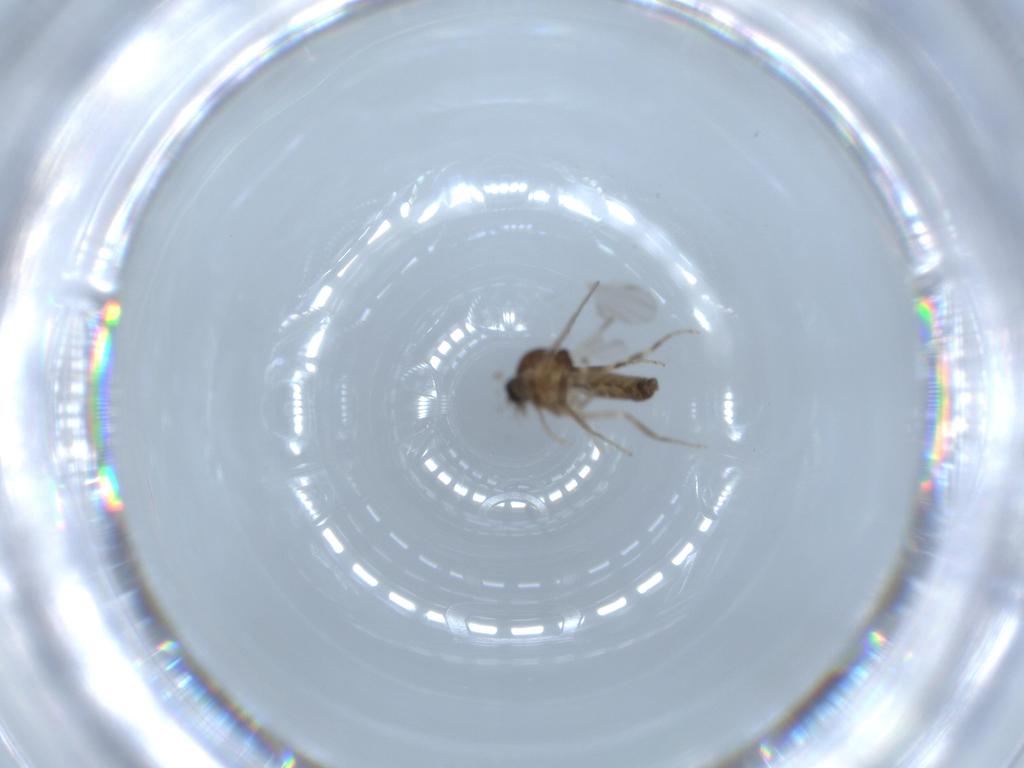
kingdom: Animalia
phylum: Arthropoda
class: Insecta
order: Diptera
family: Ceratopogonidae
